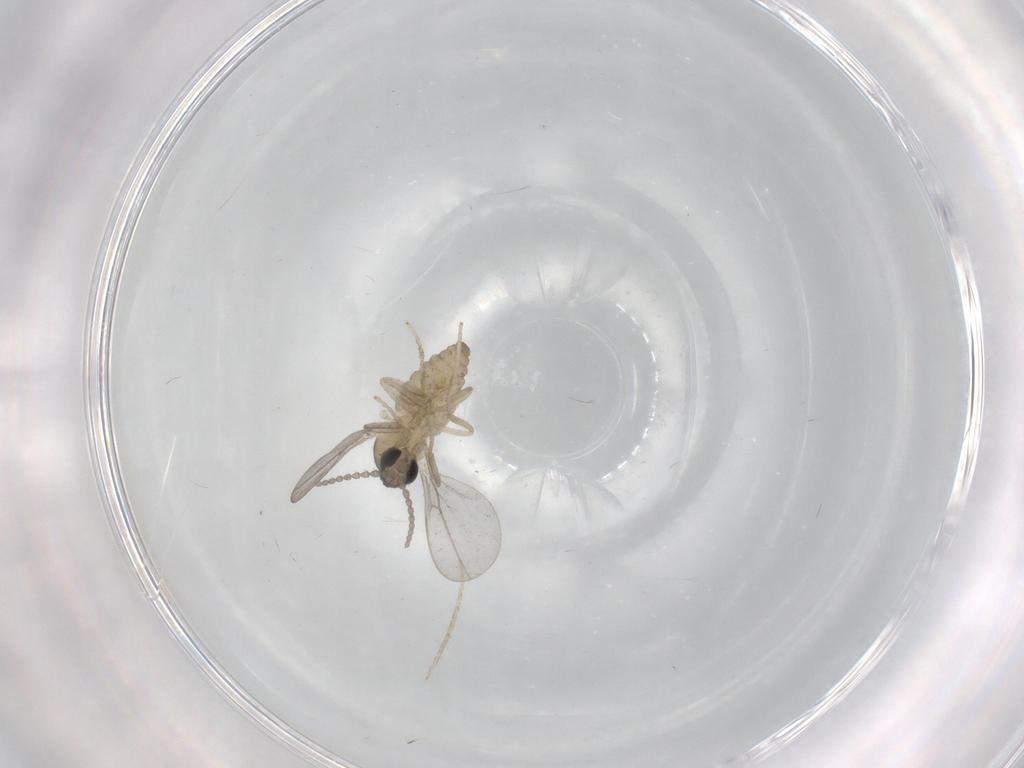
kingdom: Animalia
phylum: Arthropoda
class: Insecta
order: Diptera
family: Cecidomyiidae
